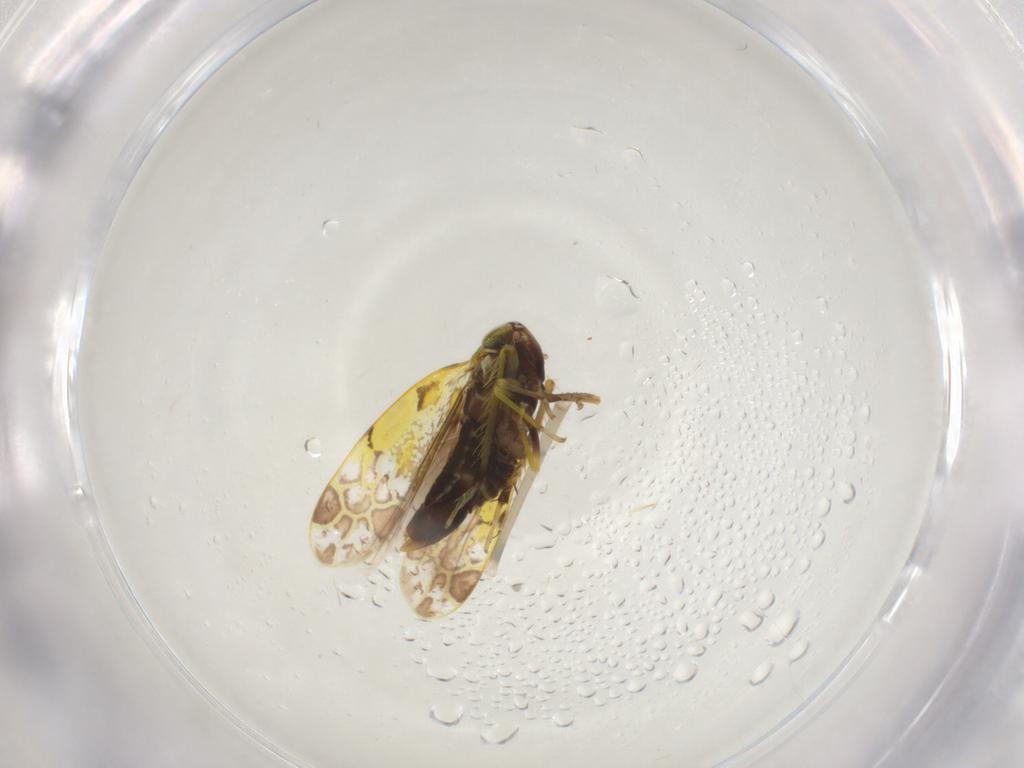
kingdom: Animalia
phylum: Arthropoda
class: Insecta
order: Hemiptera
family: Cicadellidae
